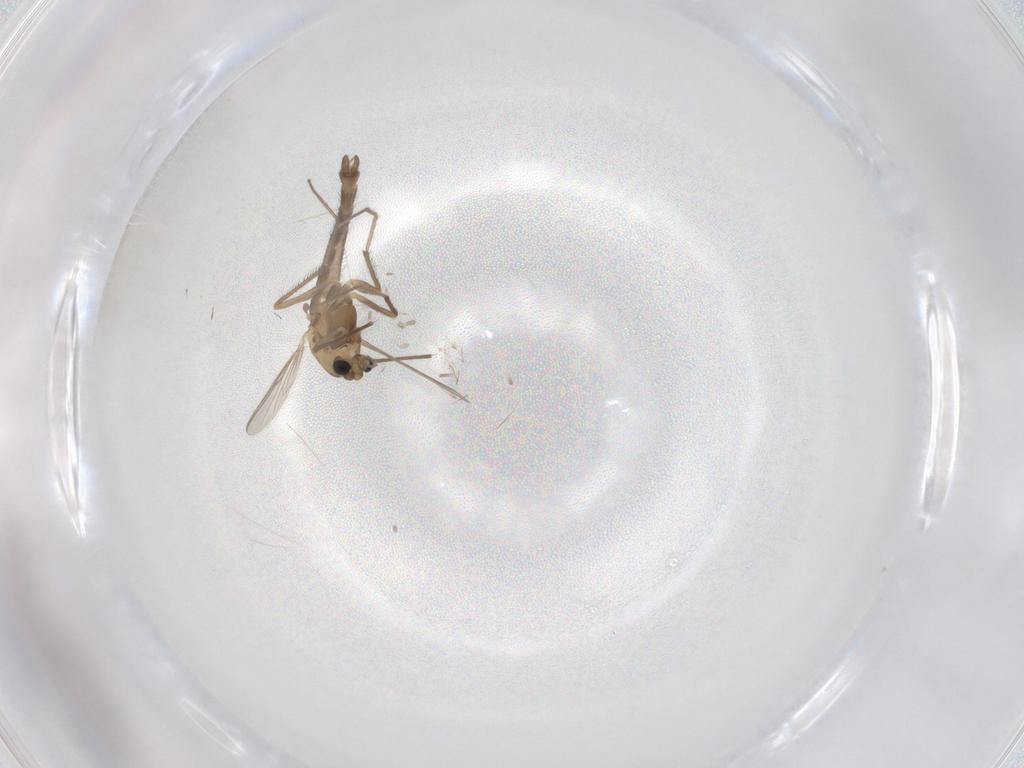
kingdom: Animalia
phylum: Arthropoda
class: Insecta
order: Diptera
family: Chironomidae
